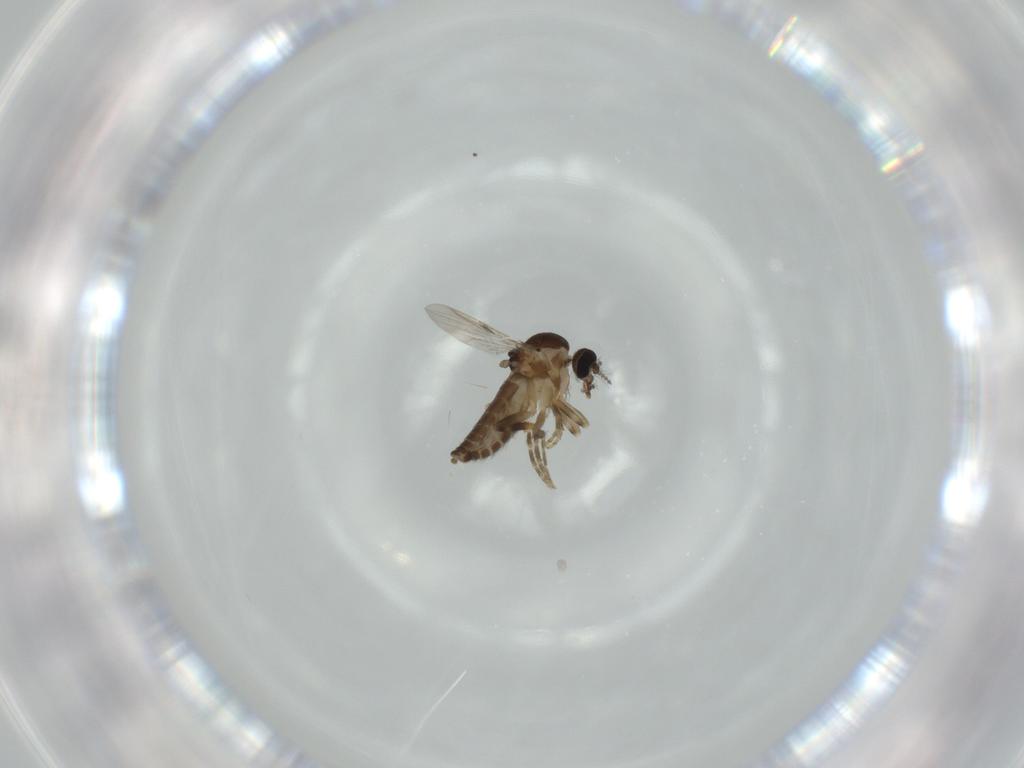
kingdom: Animalia
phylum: Arthropoda
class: Insecta
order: Diptera
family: Ceratopogonidae
